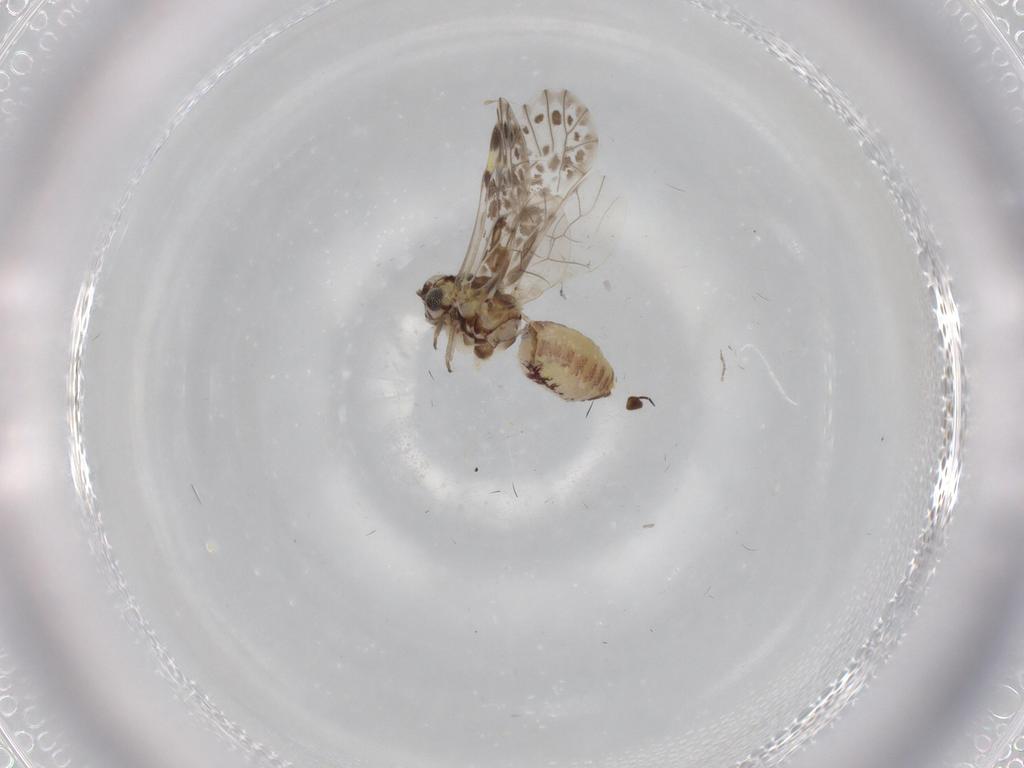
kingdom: Animalia
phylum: Arthropoda
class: Insecta
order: Psocodea
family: Psocidae
